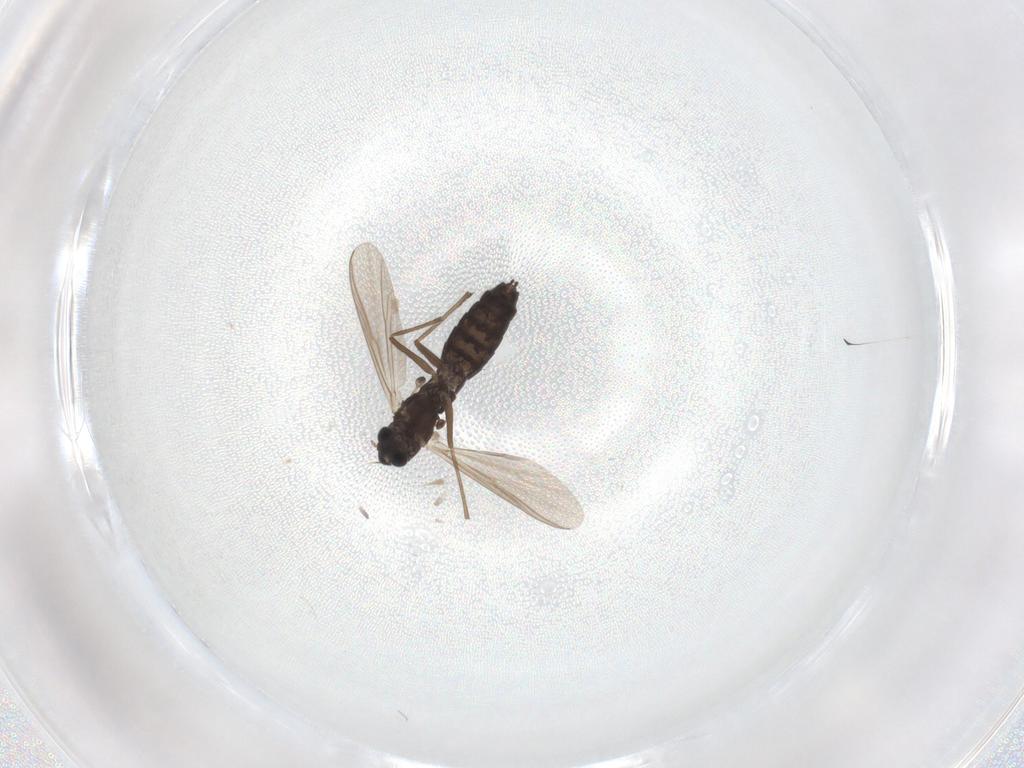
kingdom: Animalia
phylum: Arthropoda
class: Insecta
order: Diptera
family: Chironomidae
